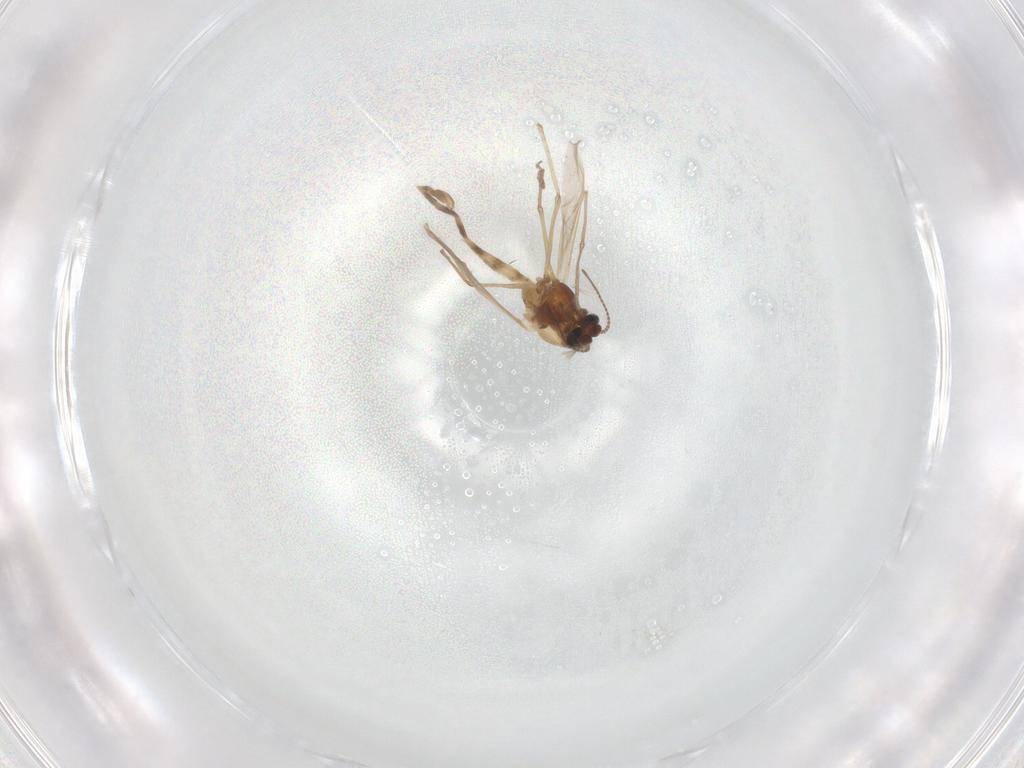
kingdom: Animalia
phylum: Arthropoda
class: Insecta
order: Diptera
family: Chironomidae
